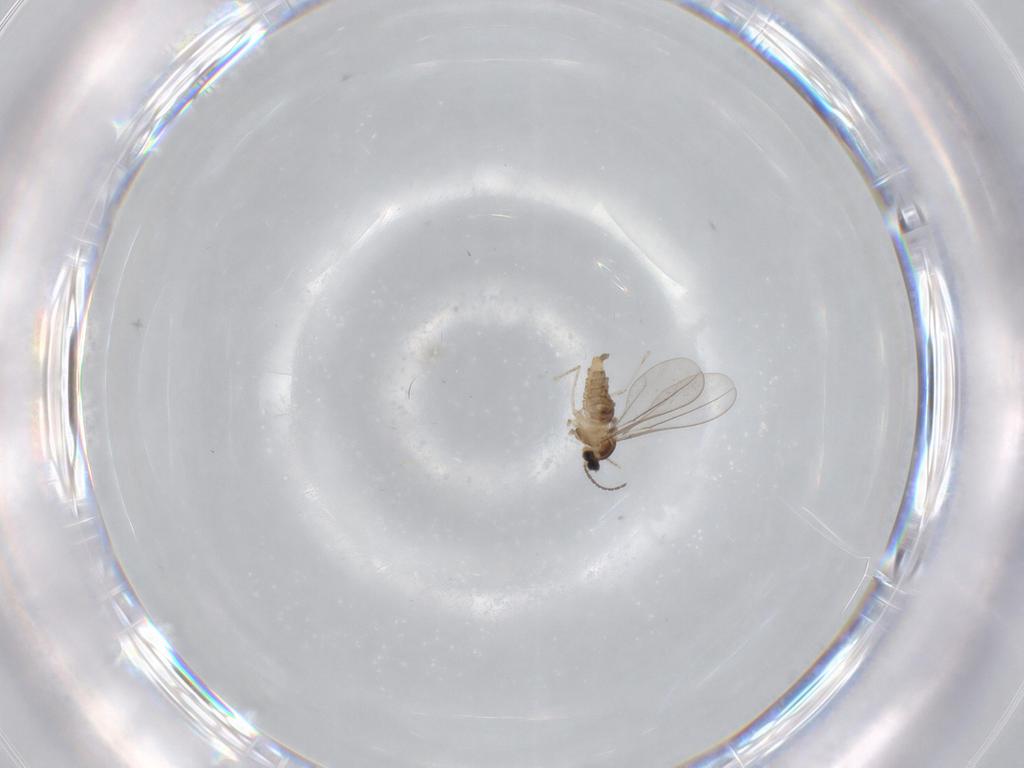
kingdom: Animalia
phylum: Arthropoda
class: Insecta
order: Diptera
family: Cecidomyiidae
